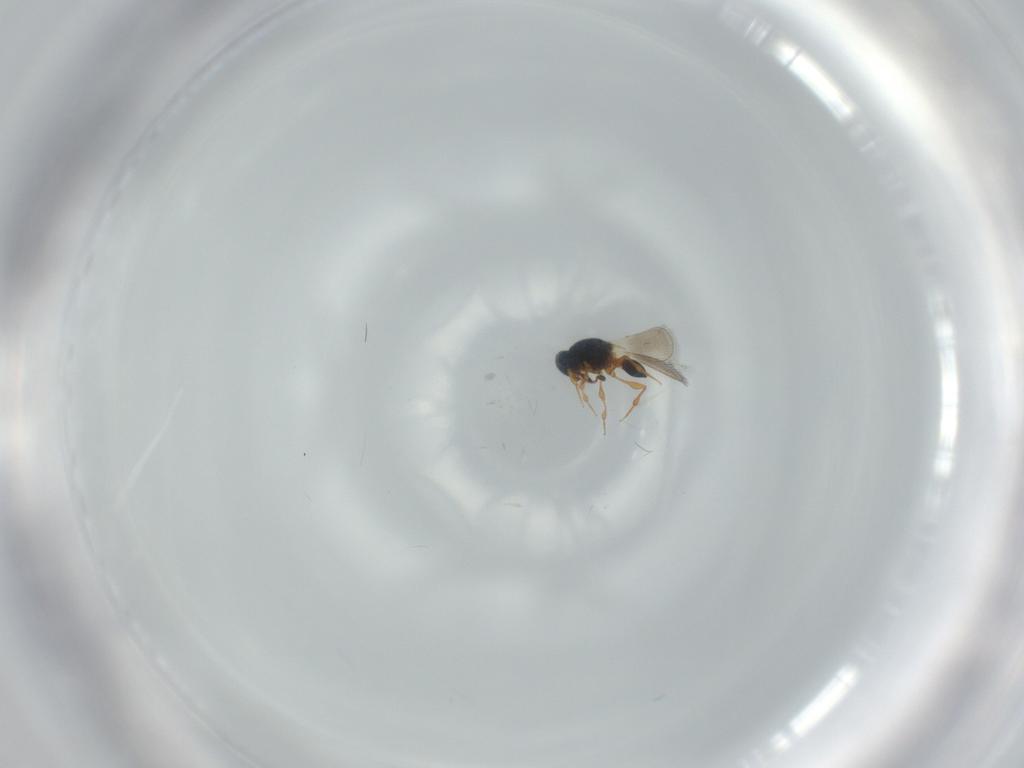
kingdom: Animalia
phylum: Arthropoda
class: Insecta
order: Hymenoptera
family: Platygastridae
